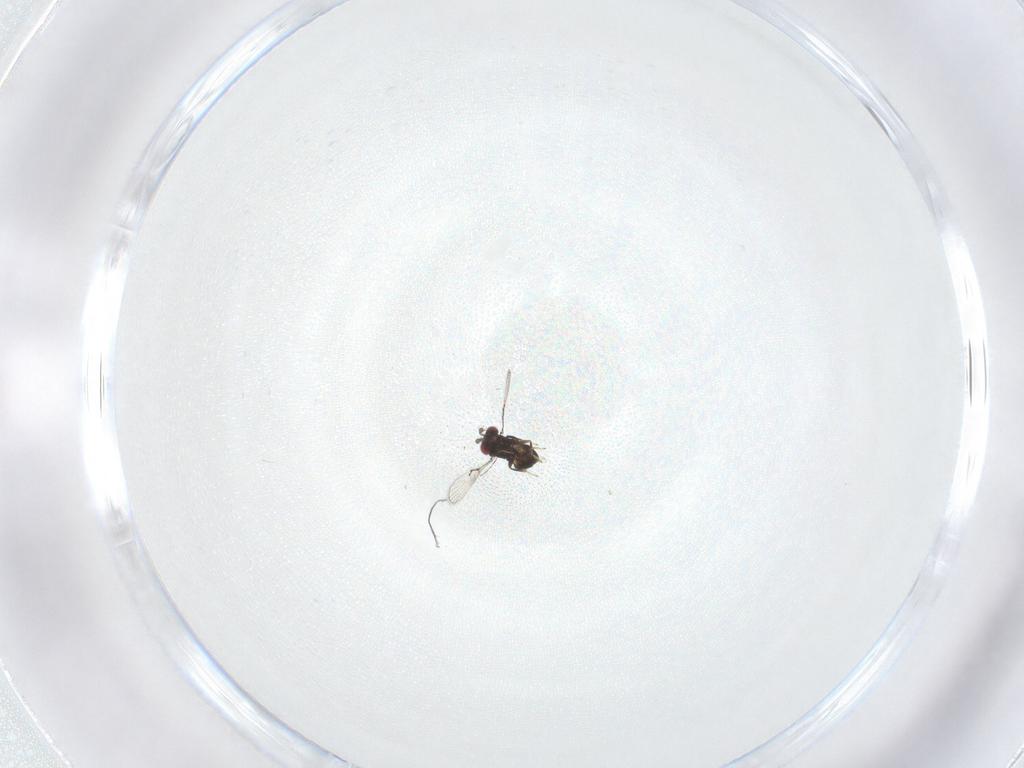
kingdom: Animalia
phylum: Arthropoda
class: Insecta
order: Hymenoptera
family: Trichogrammatidae
